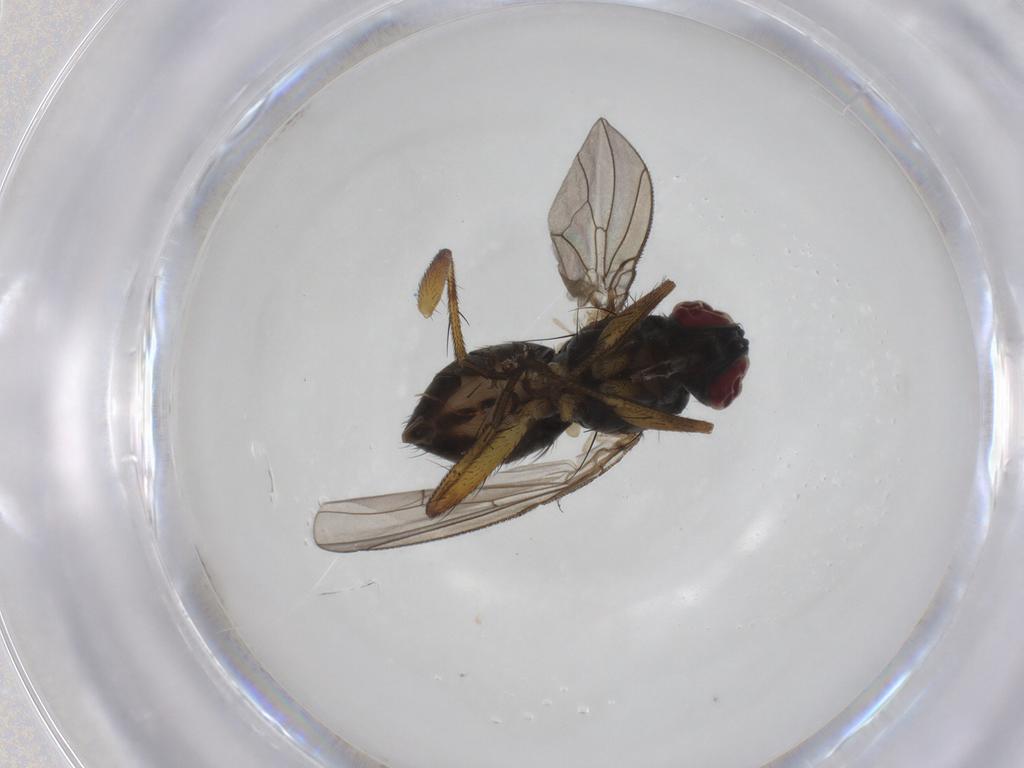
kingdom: Animalia
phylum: Arthropoda
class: Insecta
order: Diptera
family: Muscidae
